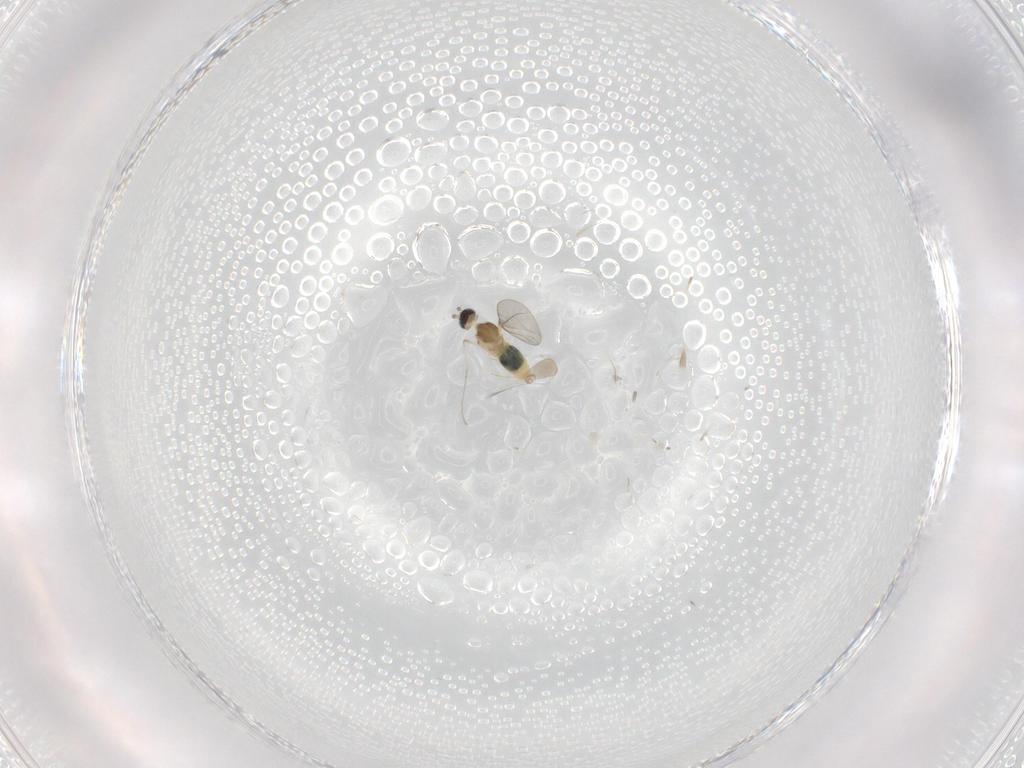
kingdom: Animalia
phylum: Arthropoda
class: Insecta
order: Diptera
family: Cecidomyiidae
